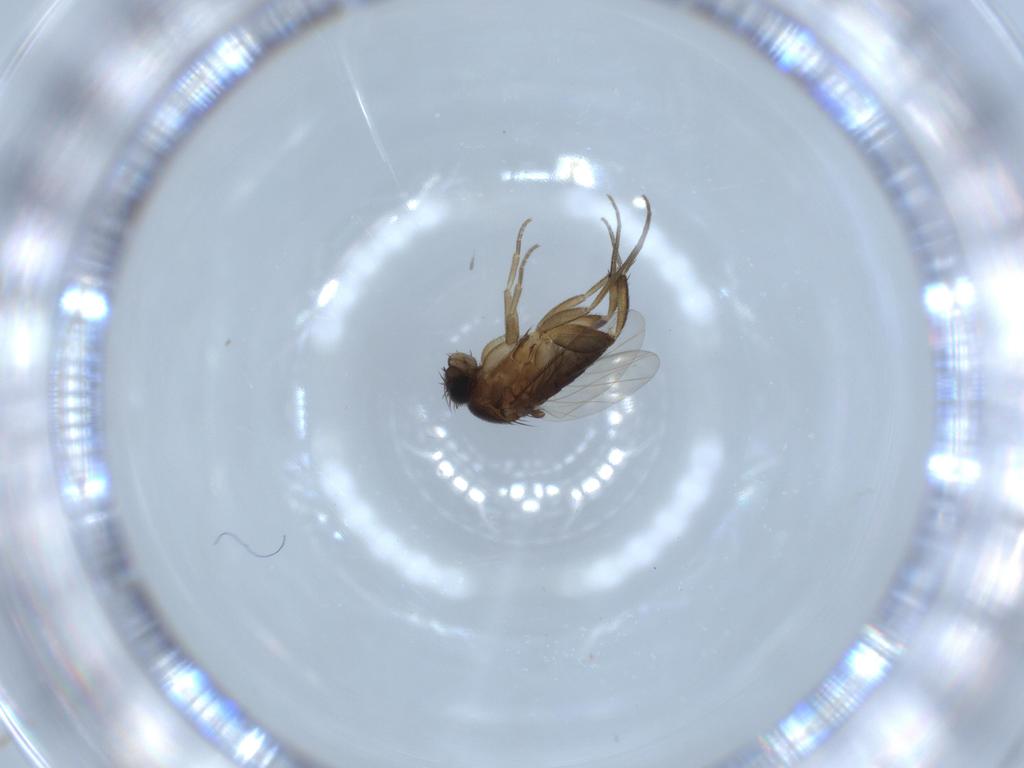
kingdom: Animalia
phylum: Arthropoda
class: Insecta
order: Diptera
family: Phoridae
